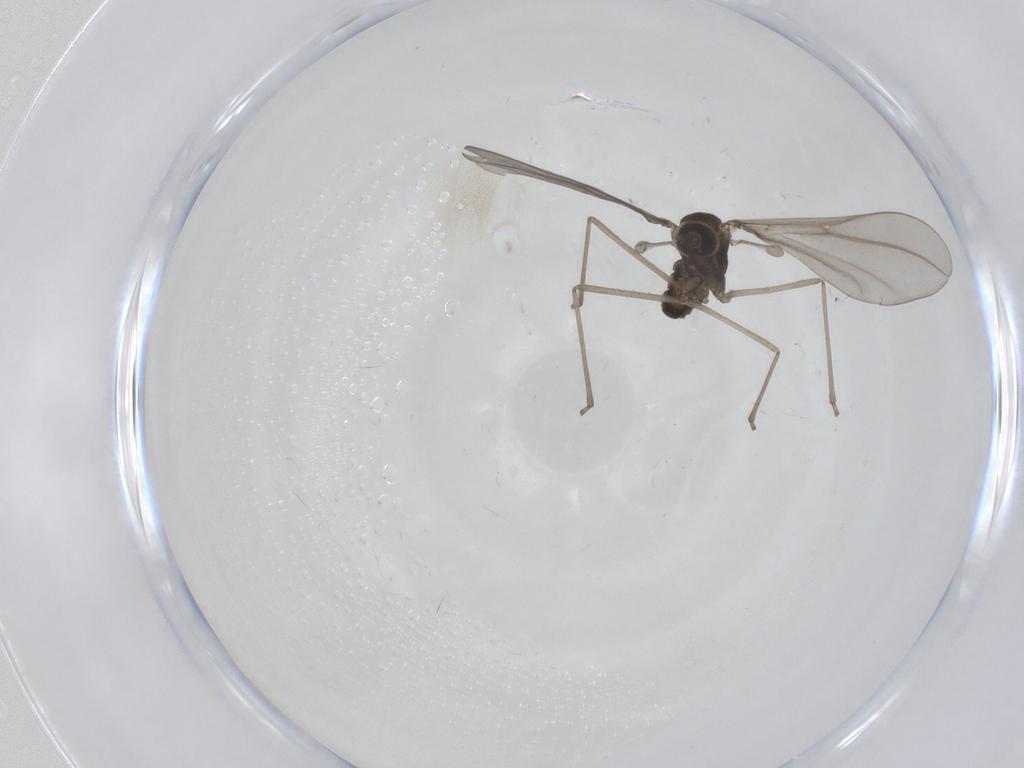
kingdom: Animalia
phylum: Arthropoda
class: Insecta
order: Diptera
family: Cecidomyiidae
